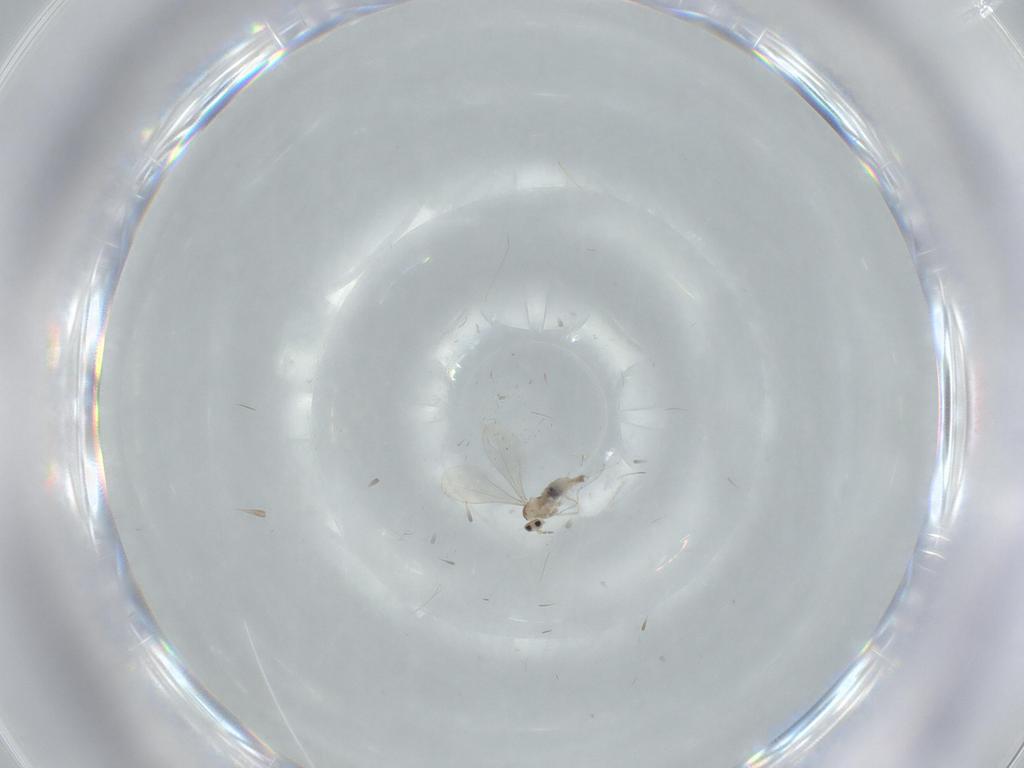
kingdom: Animalia
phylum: Arthropoda
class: Insecta
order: Diptera
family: Cecidomyiidae
